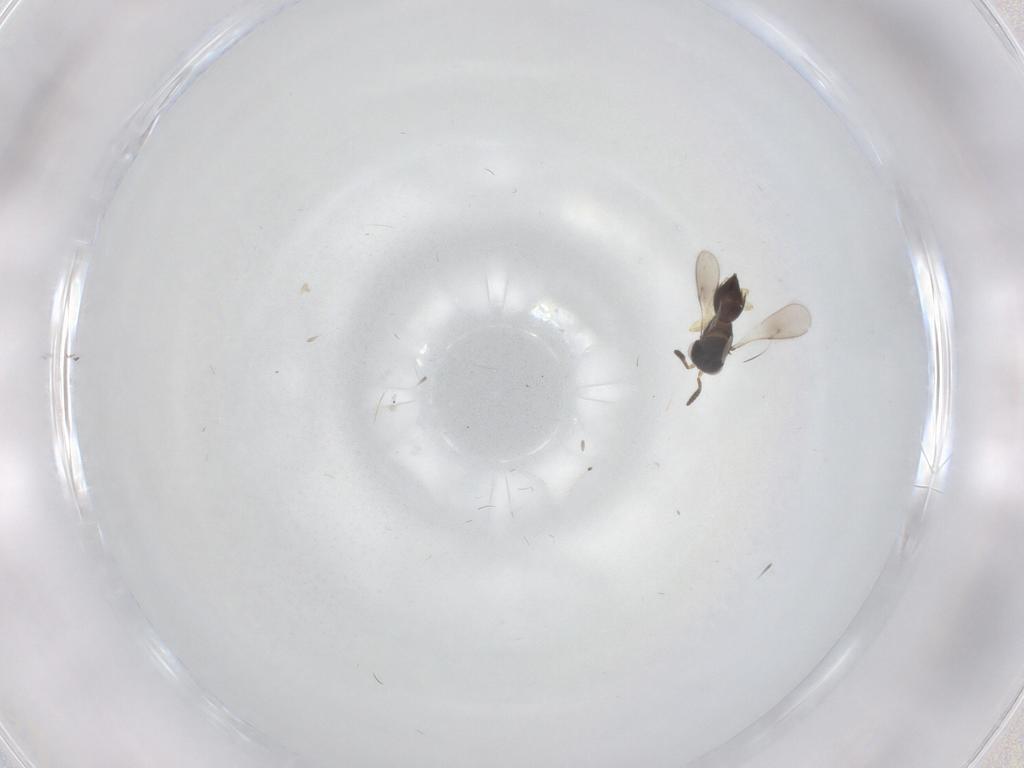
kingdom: Animalia
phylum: Arthropoda
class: Insecta
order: Hymenoptera
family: Scelionidae
